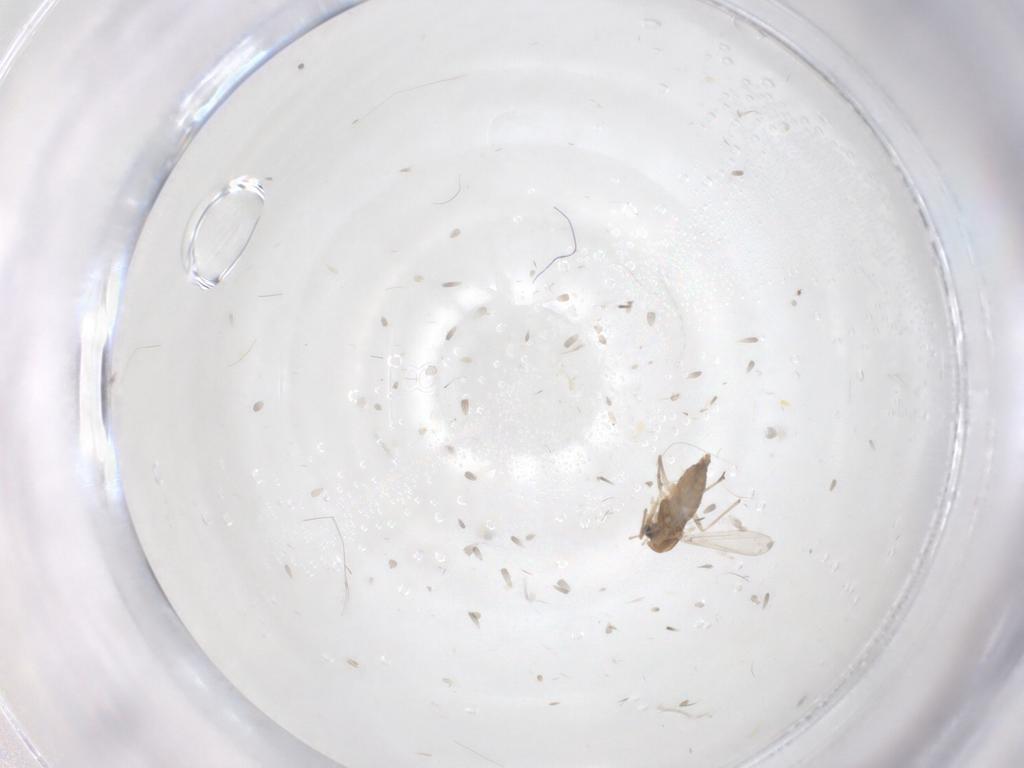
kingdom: Animalia
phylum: Arthropoda
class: Insecta
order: Diptera
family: Chironomidae
